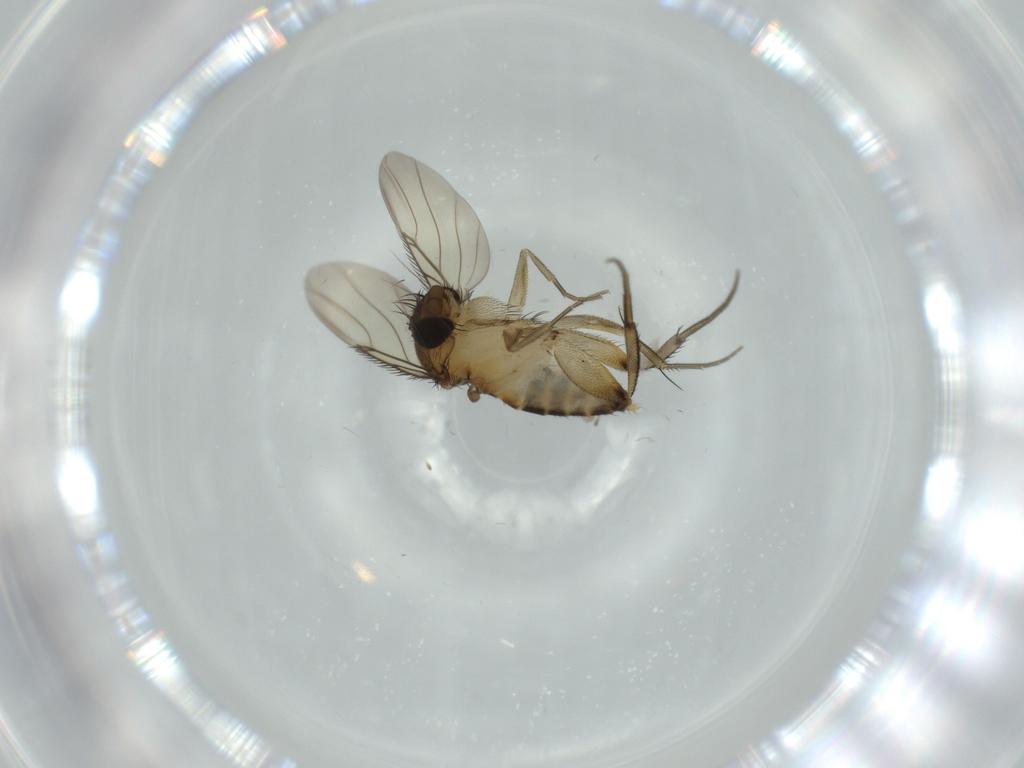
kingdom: Animalia
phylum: Arthropoda
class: Insecta
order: Diptera
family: Phoridae
